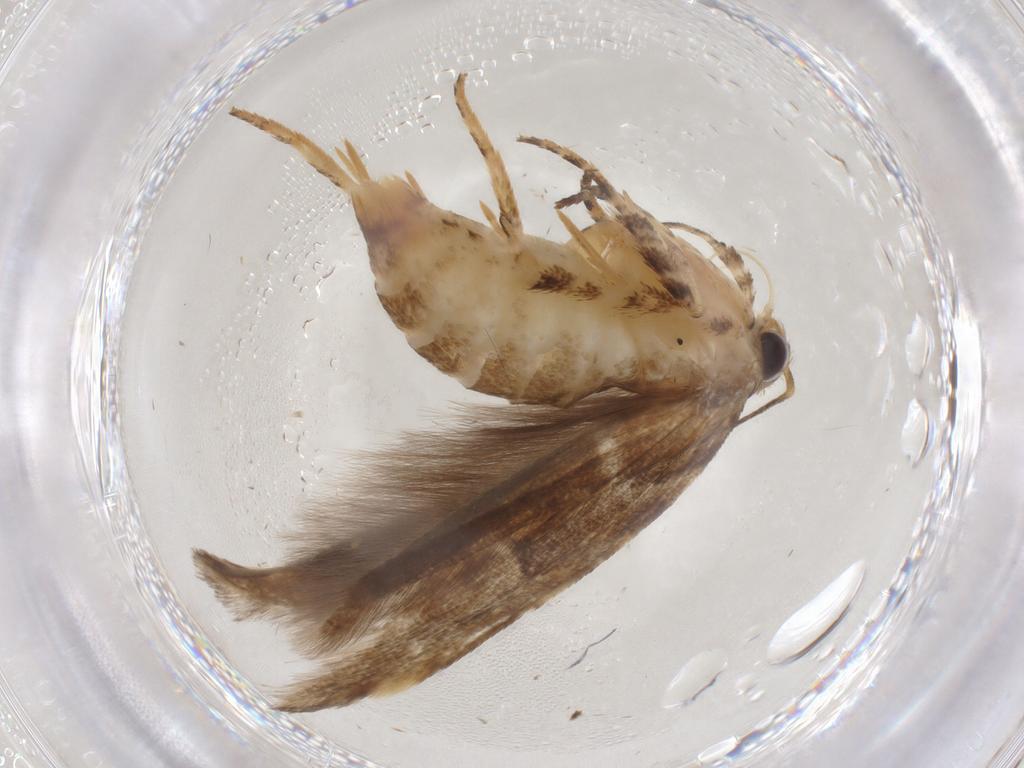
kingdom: Animalia
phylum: Arthropoda
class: Insecta
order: Lepidoptera
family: Gelechiidae
